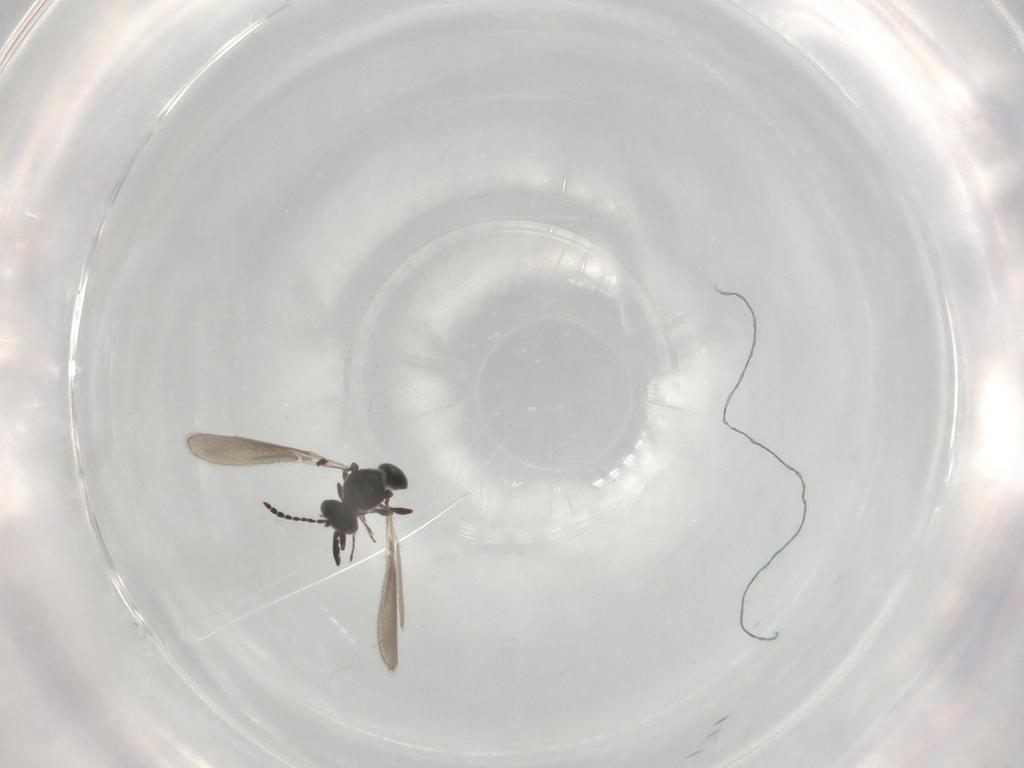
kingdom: Animalia
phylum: Arthropoda
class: Insecta
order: Hymenoptera
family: Platygastridae
